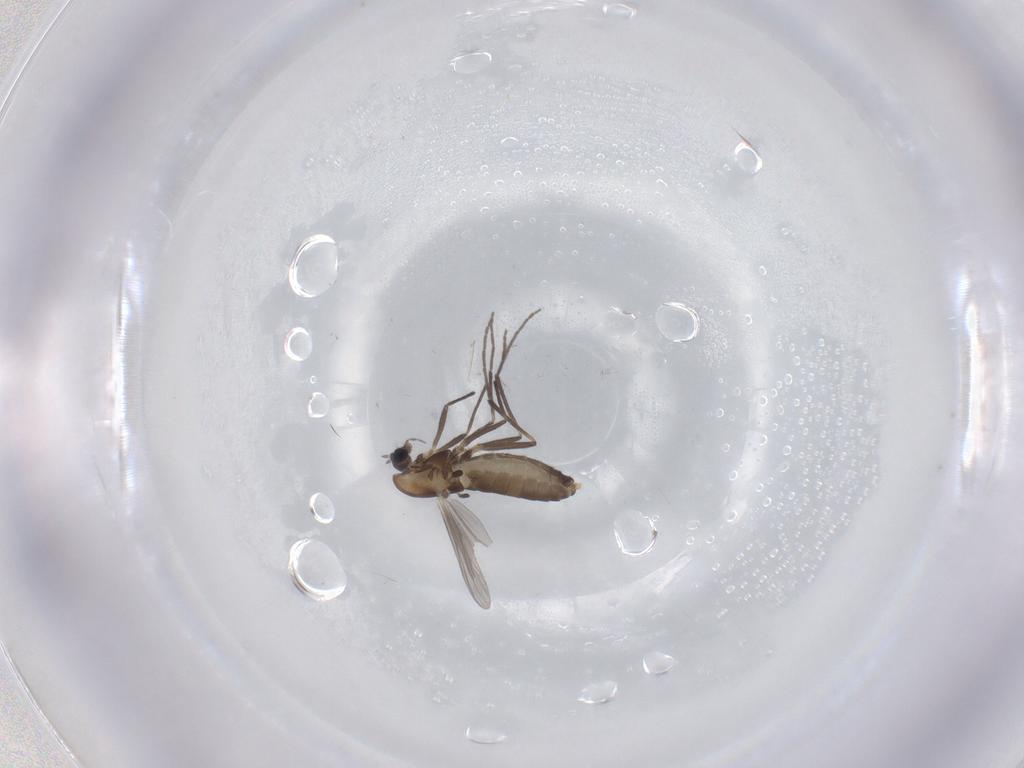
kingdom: Animalia
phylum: Arthropoda
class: Insecta
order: Diptera
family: Chironomidae
